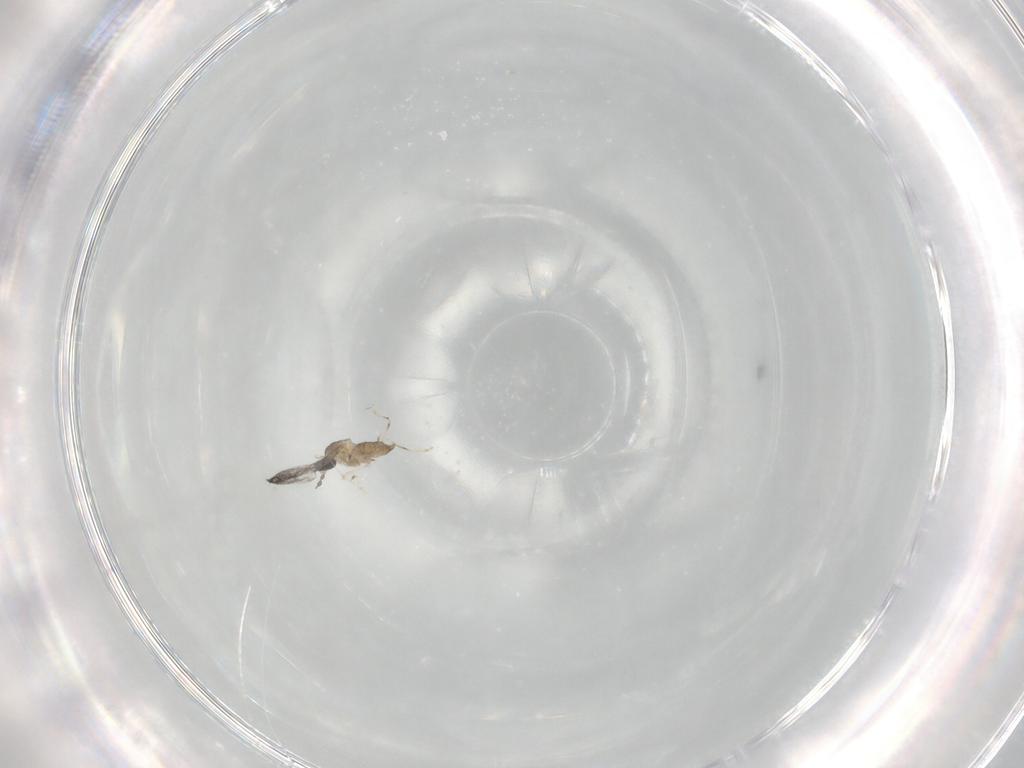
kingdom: Animalia
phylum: Arthropoda
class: Insecta
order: Diptera
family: Cecidomyiidae
